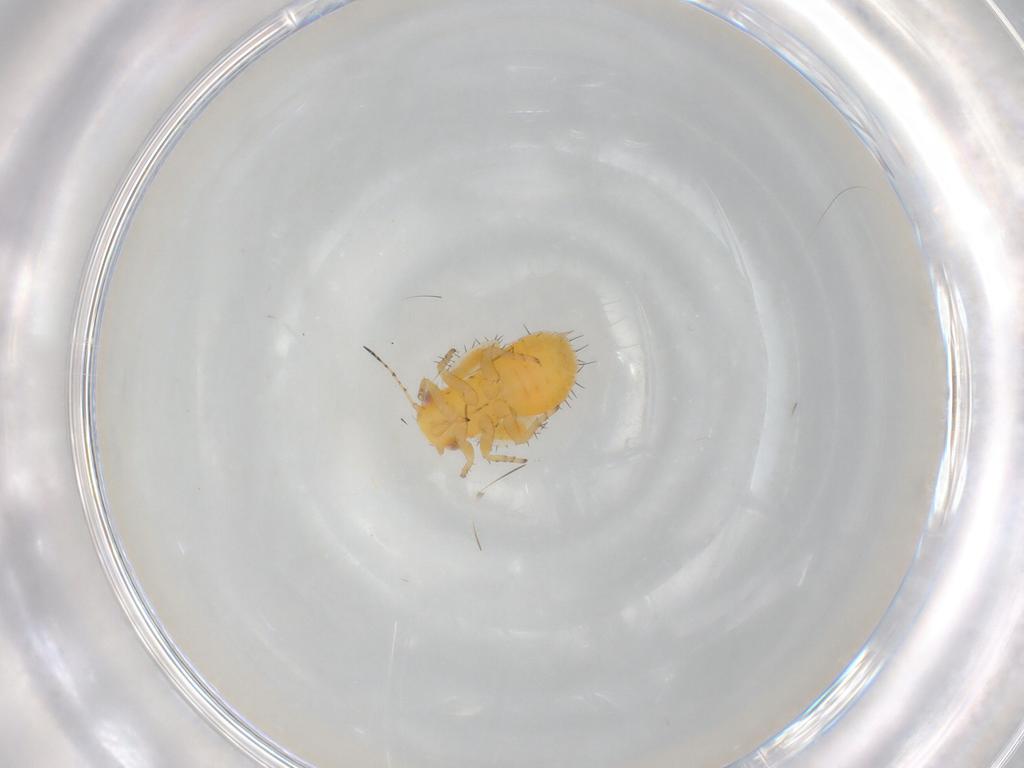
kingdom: Animalia
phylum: Arthropoda
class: Insecta
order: Hemiptera
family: Psyllidae
